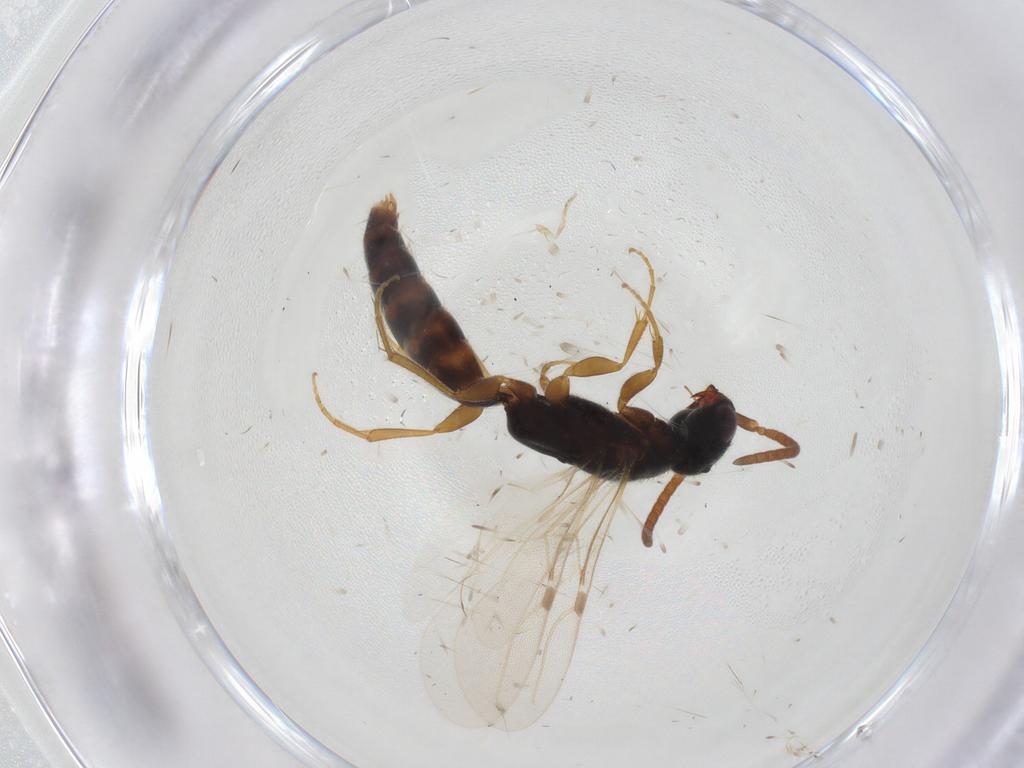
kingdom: Animalia
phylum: Arthropoda
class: Insecta
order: Hymenoptera
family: Bethylidae
